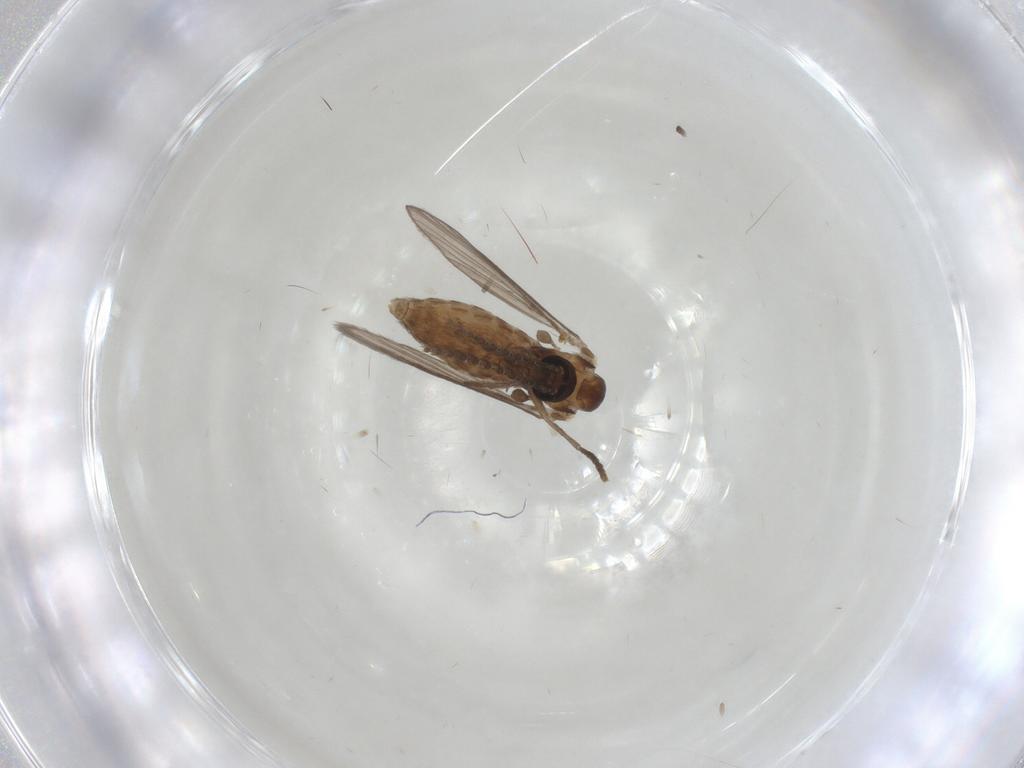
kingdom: Animalia
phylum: Arthropoda
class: Insecta
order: Diptera
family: Psychodidae
